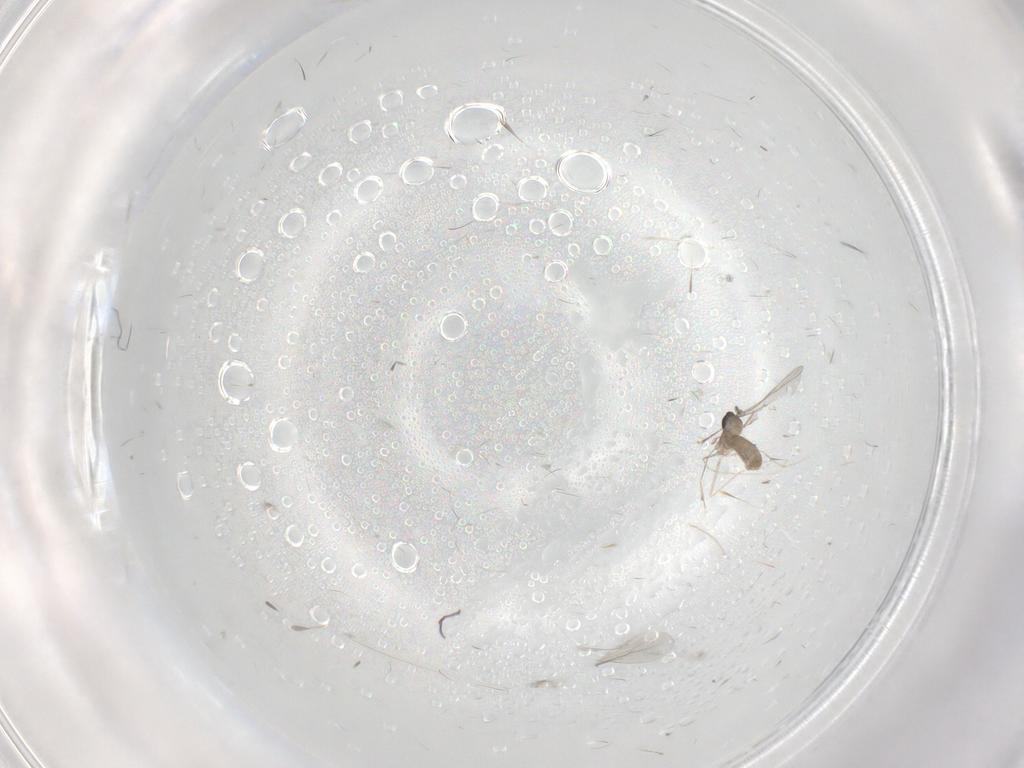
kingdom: Animalia
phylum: Arthropoda
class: Insecta
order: Diptera
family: Cecidomyiidae
